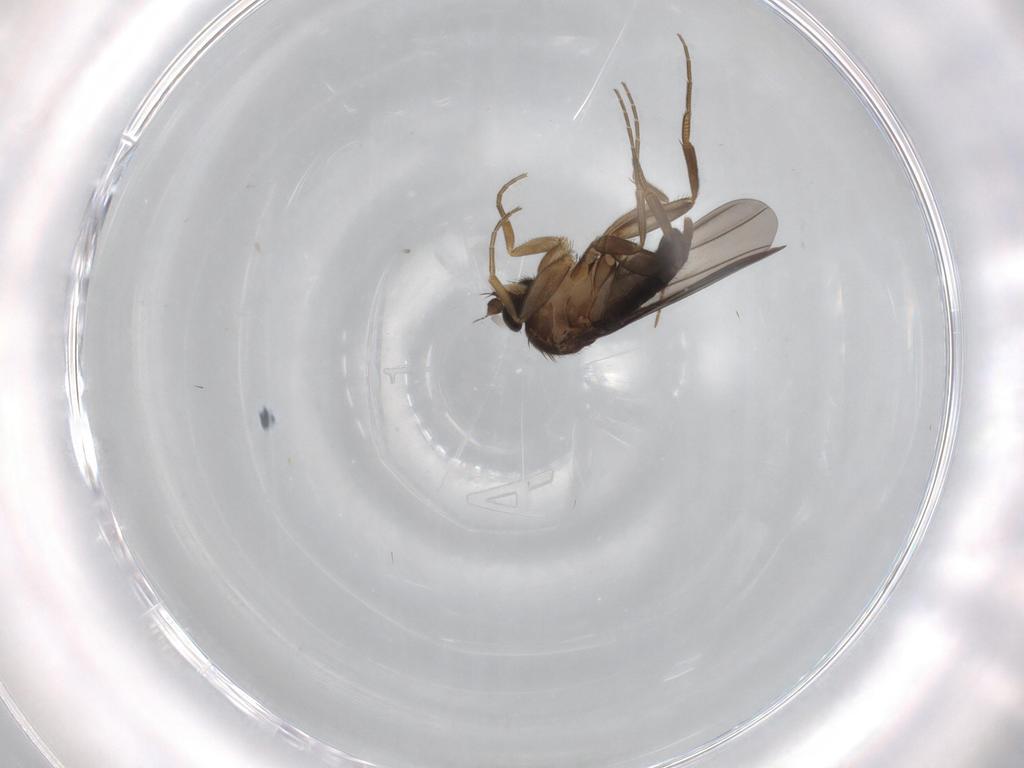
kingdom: Animalia
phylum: Arthropoda
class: Insecta
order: Diptera
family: Phoridae
